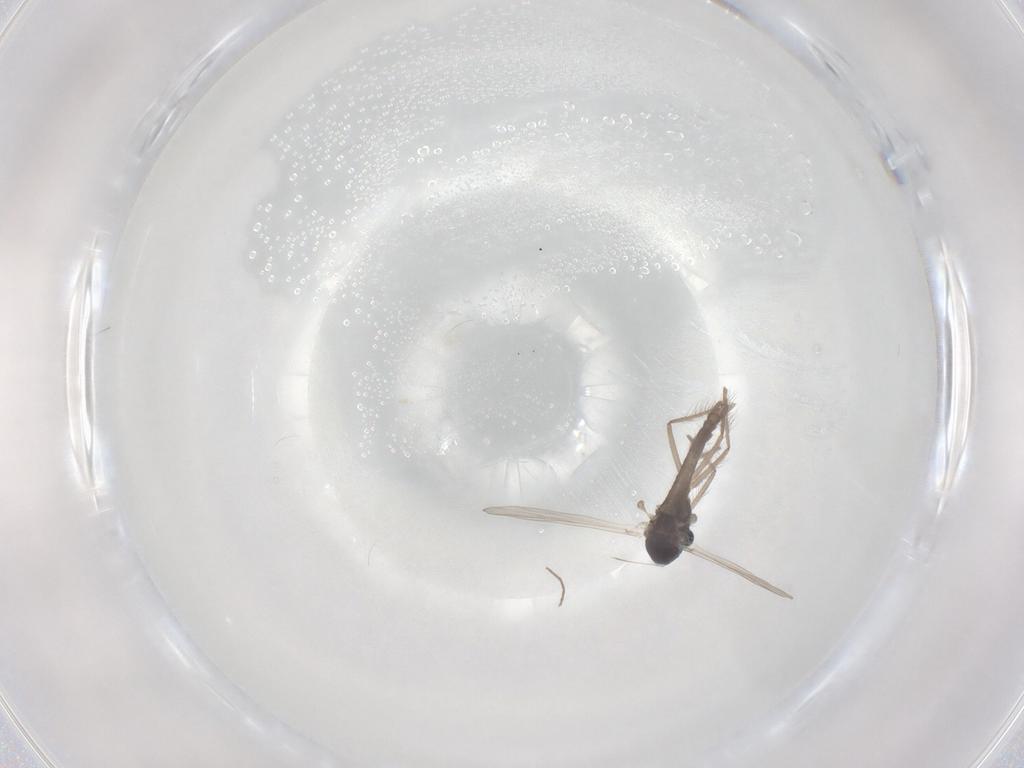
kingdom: Animalia
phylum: Arthropoda
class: Insecta
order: Diptera
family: Chironomidae
